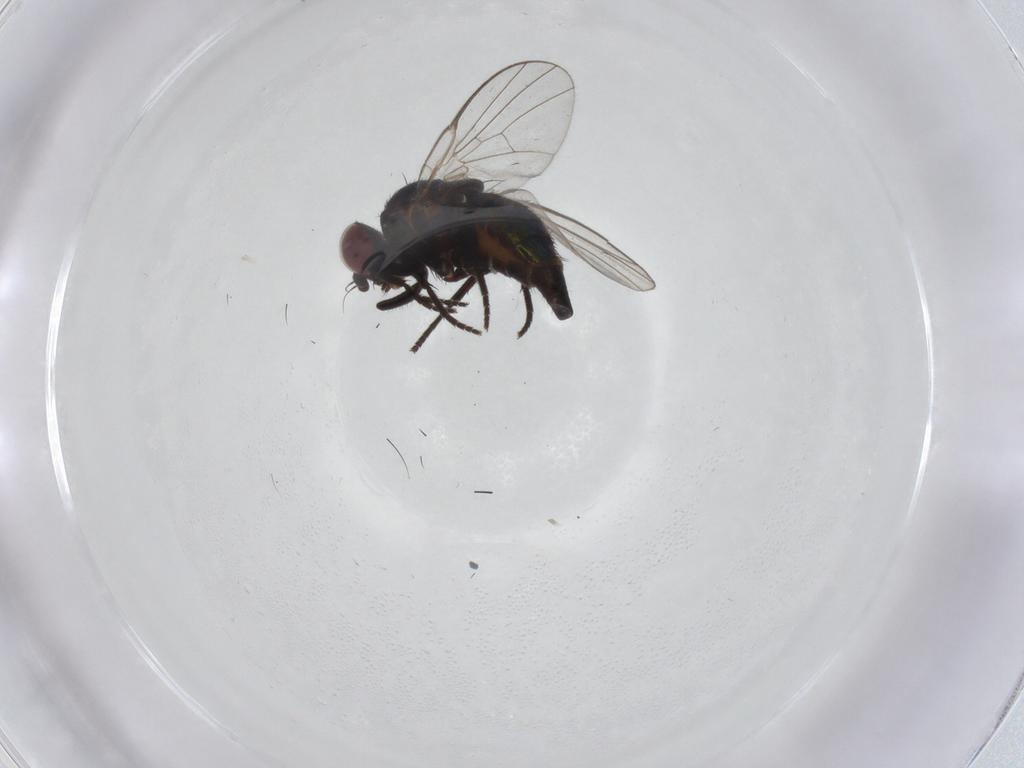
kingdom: Animalia
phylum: Arthropoda
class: Insecta
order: Diptera
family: Agromyzidae
